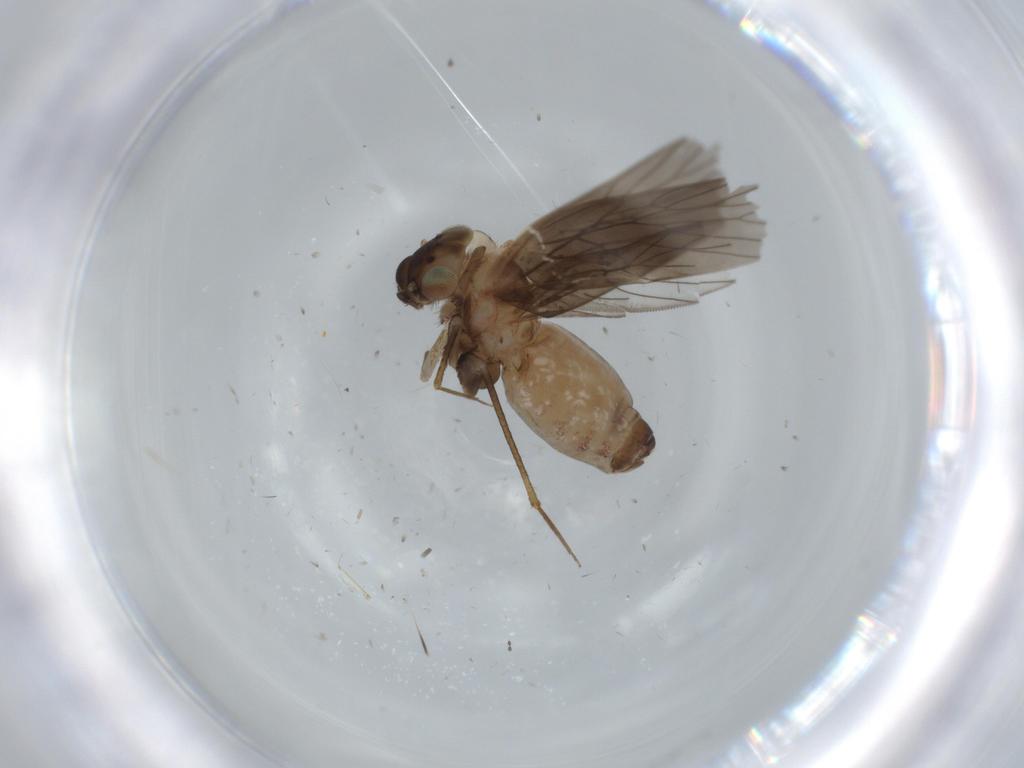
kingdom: Animalia
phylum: Arthropoda
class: Insecta
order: Psocodea
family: Lepidopsocidae
